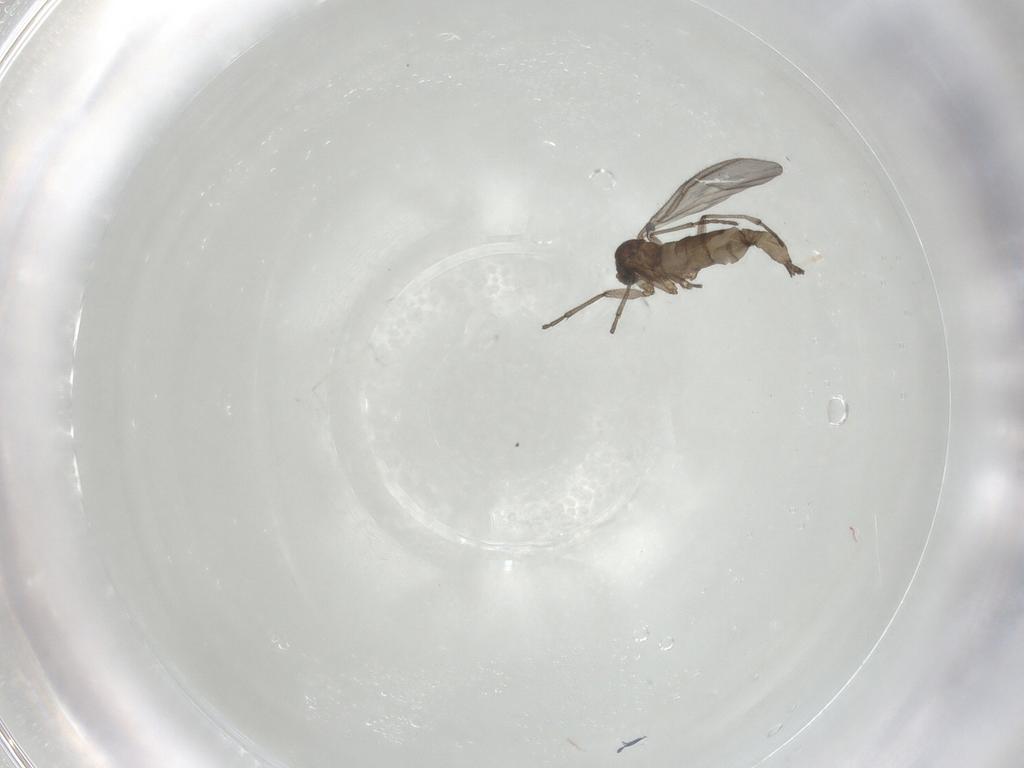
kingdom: Animalia
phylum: Arthropoda
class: Insecta
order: Diptera
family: Sciaridae
